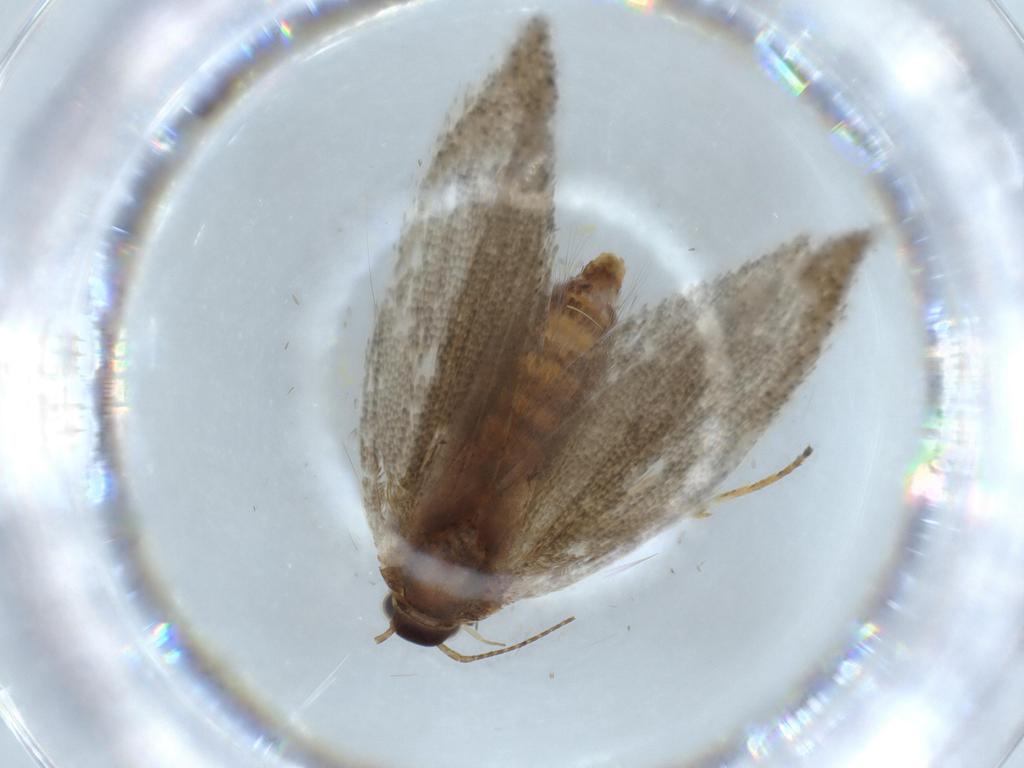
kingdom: Animalia
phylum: Arthropoda
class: Insecta
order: Lepidoptera
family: Oecophoridae
